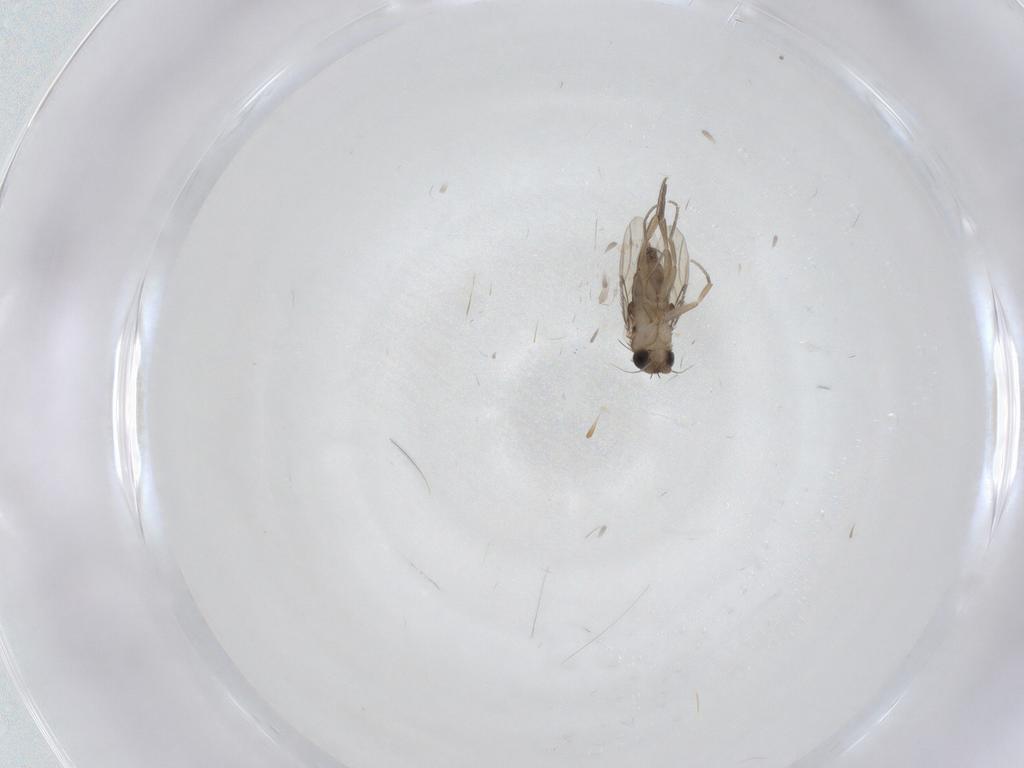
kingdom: Animalia
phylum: Arthropoda
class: Insecta
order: Diptera
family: Phoridae
